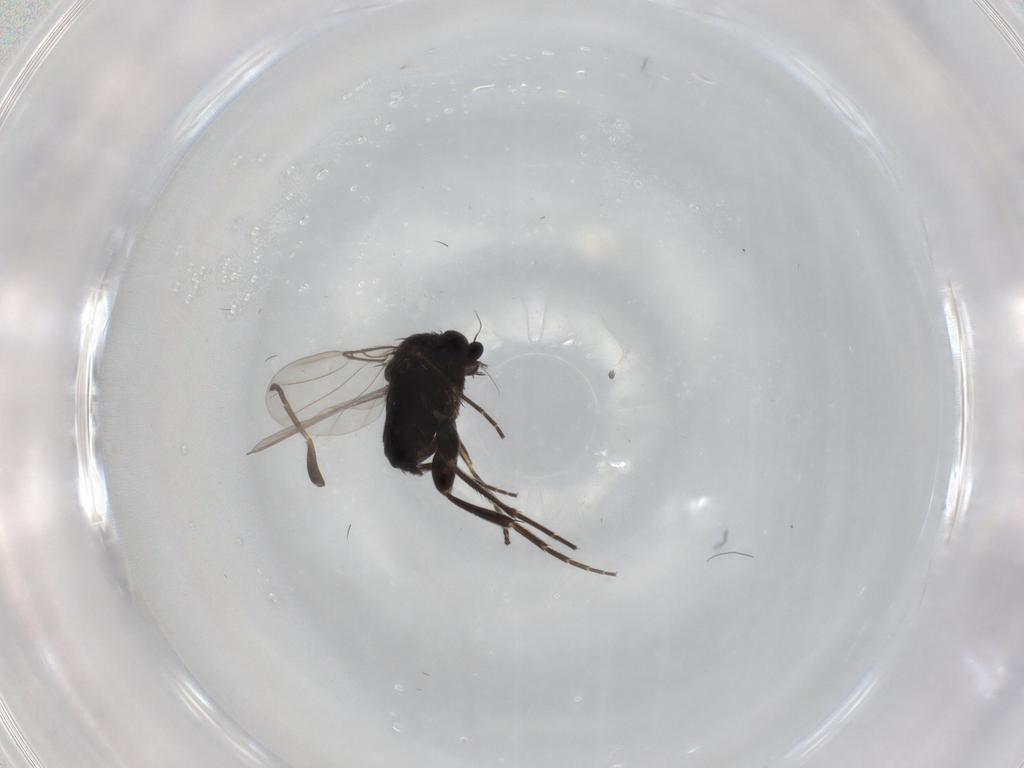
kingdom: Animalia
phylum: Arthropoda
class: Insecta
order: Diptera
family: Phoridae
